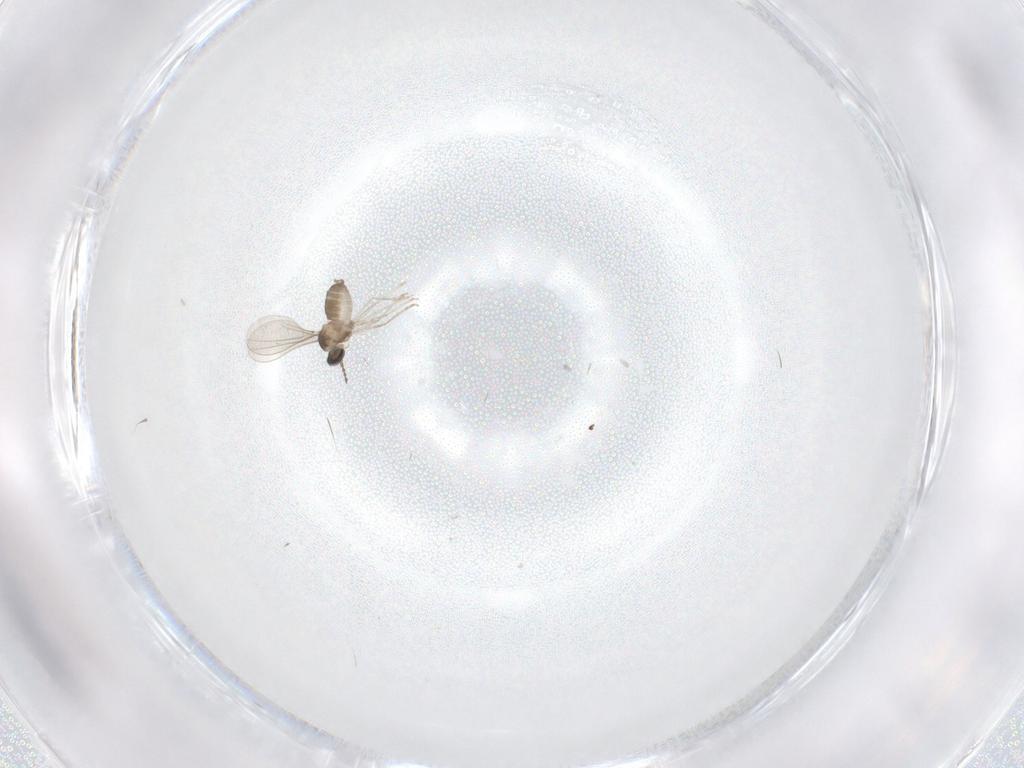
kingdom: Animalia
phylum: Arthropoda
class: Insecta
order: Diptera
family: Cecidomyiidae
